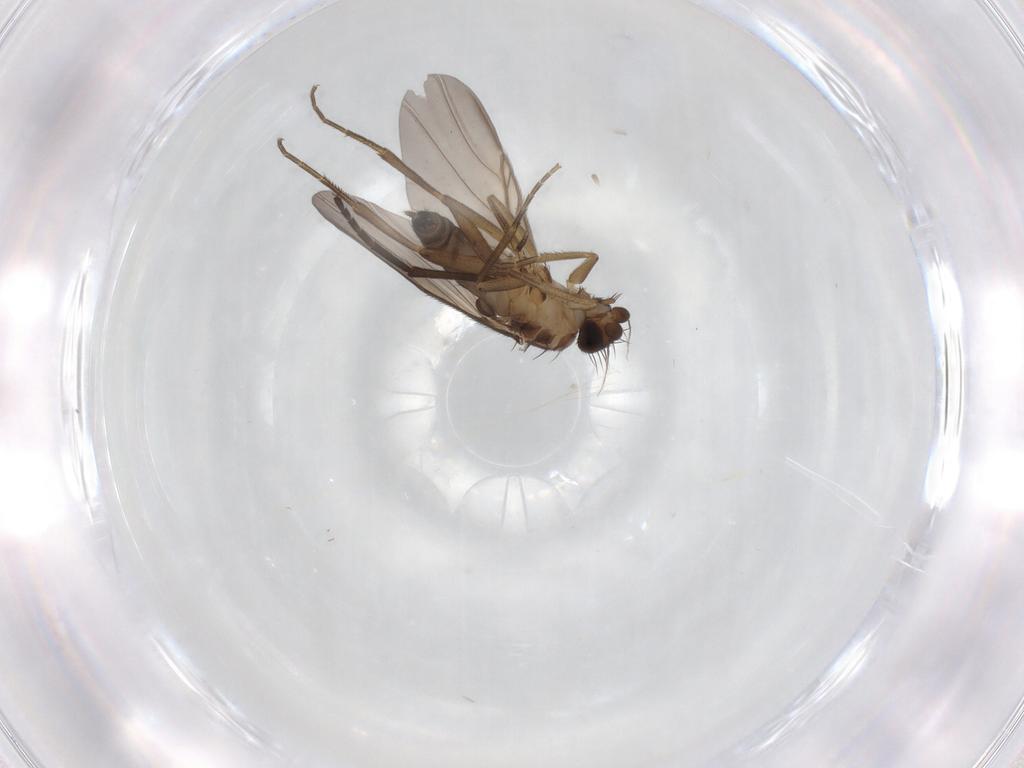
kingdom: Animalia
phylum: Arthropoda
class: Insecta
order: Diptera
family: Phoridae
